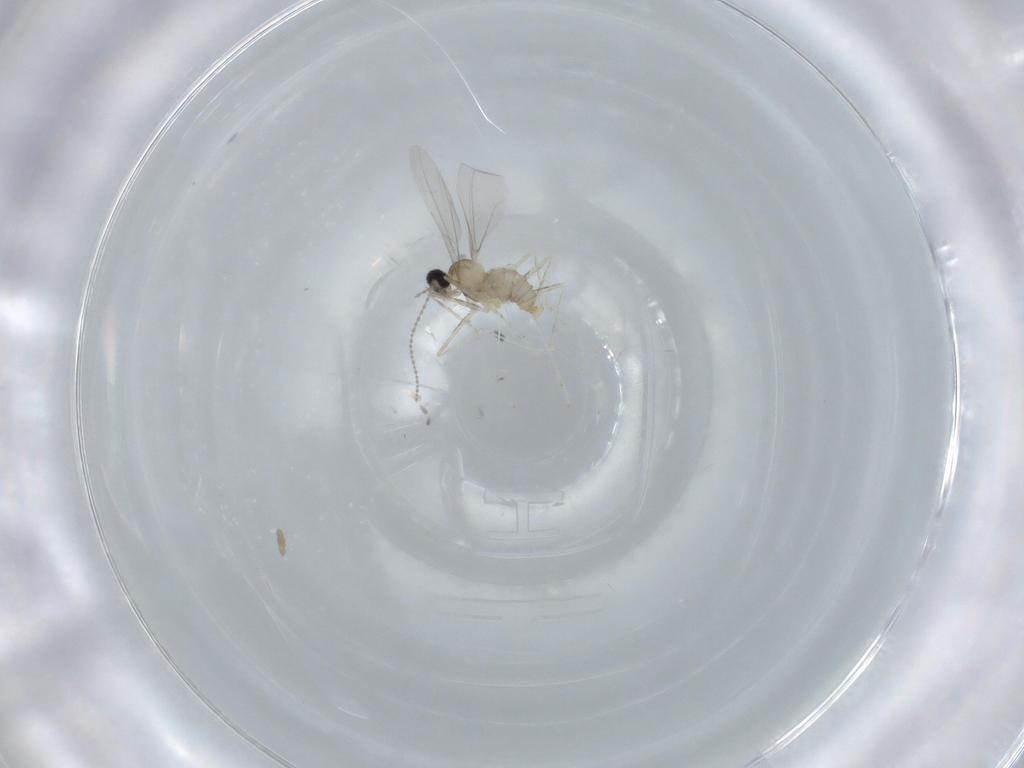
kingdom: Animalia
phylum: Arthropoda
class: Insecta
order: Diptera
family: Cecidomyiidae
